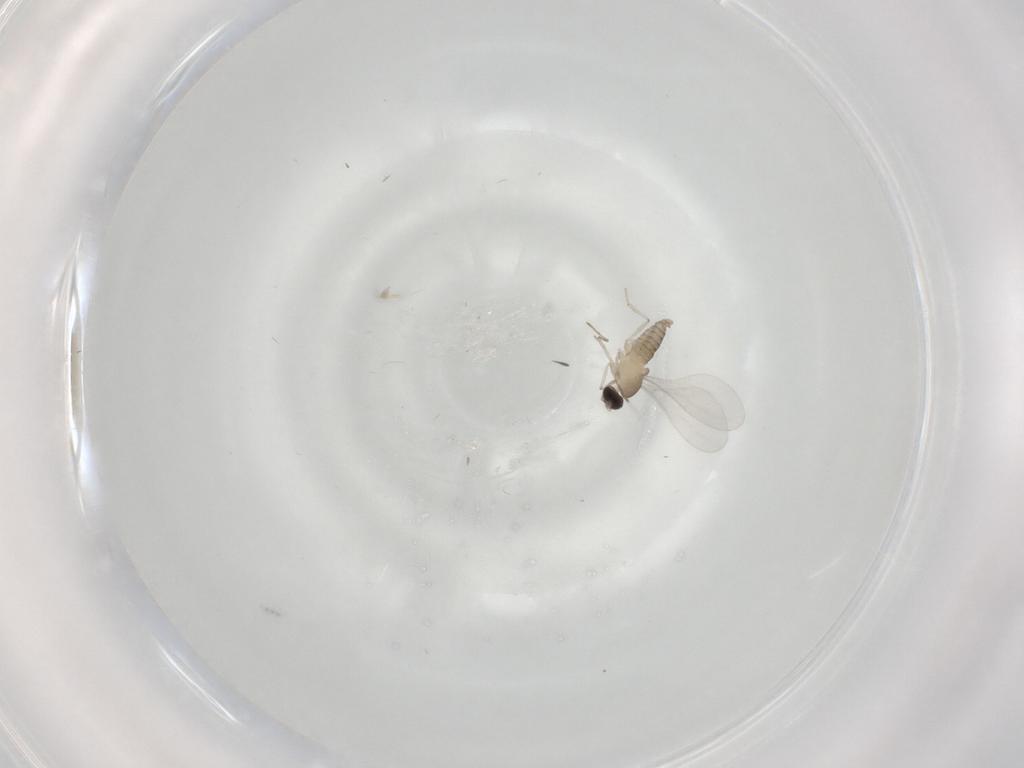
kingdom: Animalia
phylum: Arthropoda
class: Insecta
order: Diptera
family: Cecidomyiidae
